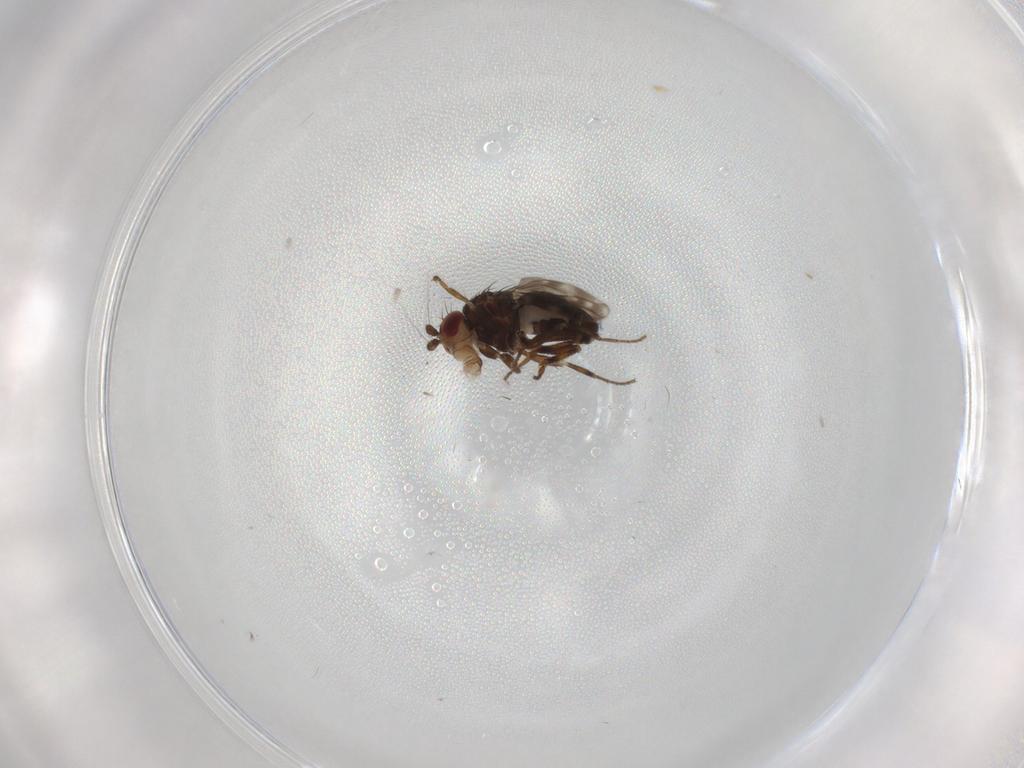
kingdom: Animalia
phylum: Arthropoda
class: Insecta
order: Diptera
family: Sphaeroceridae
